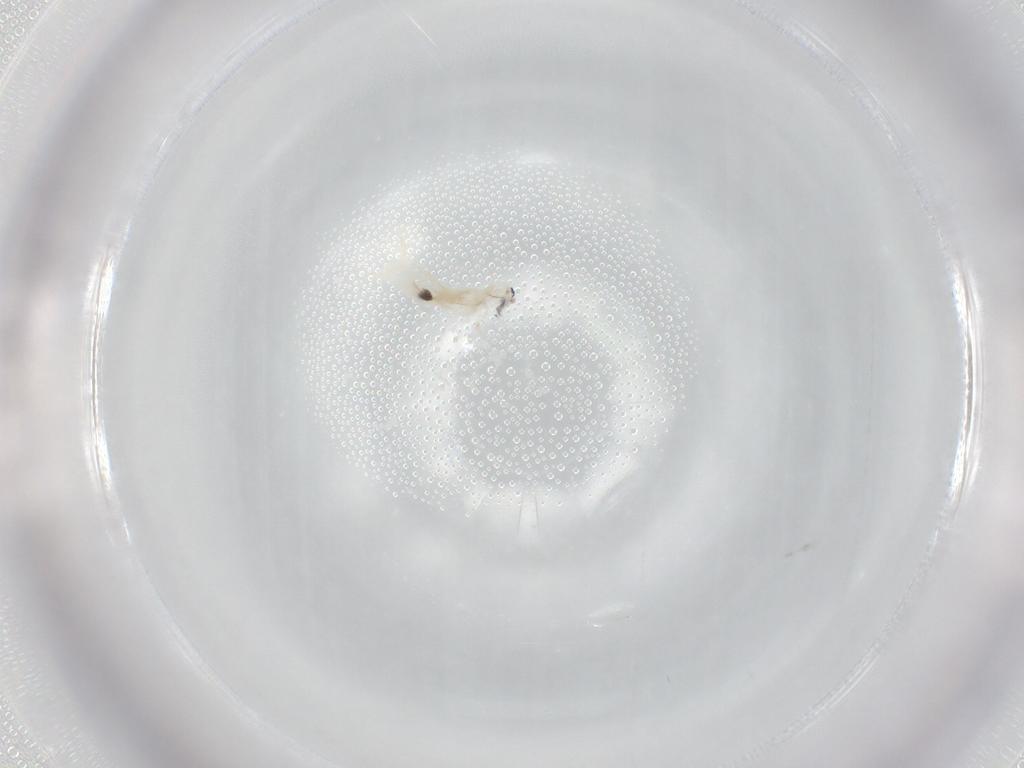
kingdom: Animalia
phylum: Arthropoda
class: Collembola
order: Entomobryomorpha
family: Entomobryidae
